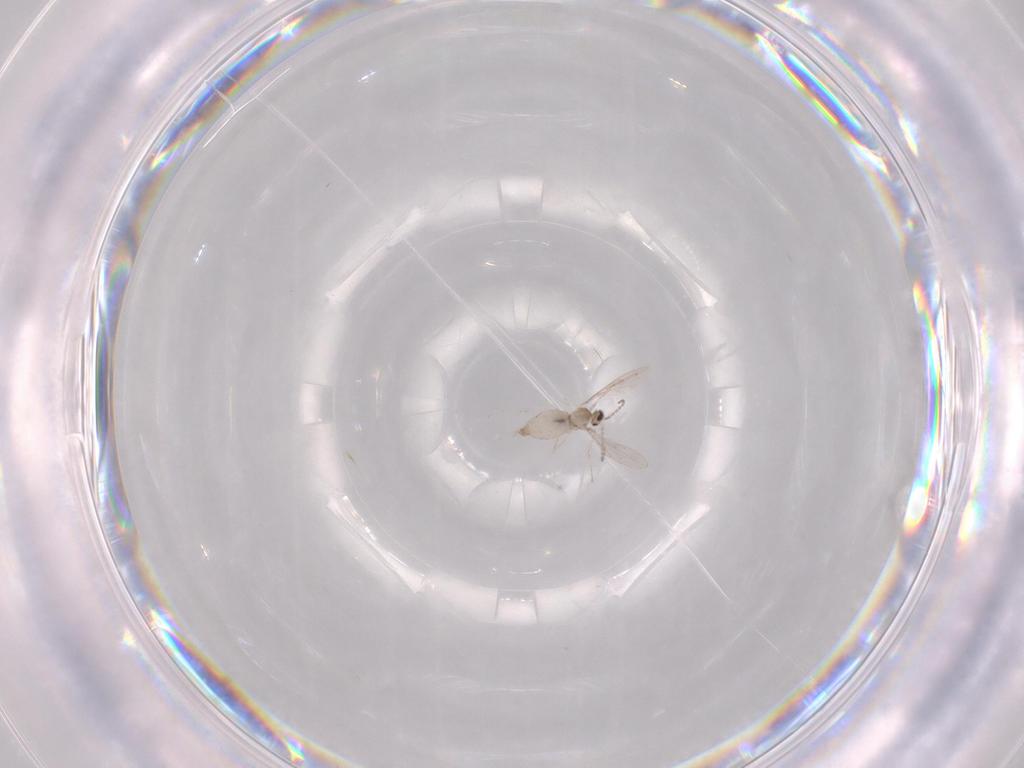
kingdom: Animalia
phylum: Arthropoda
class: Insecta
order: Diptera
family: Cecidomyiidae
